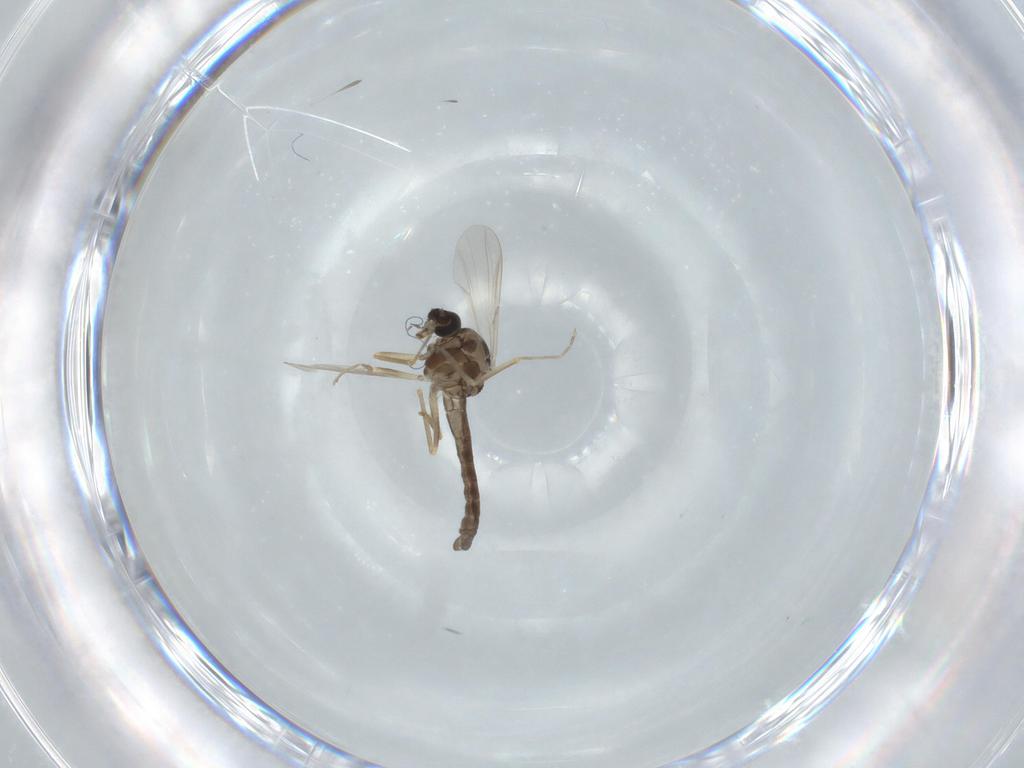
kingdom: Animalia
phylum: Arthropoda
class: Insecta
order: Diptera
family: Ceratopogonidae
